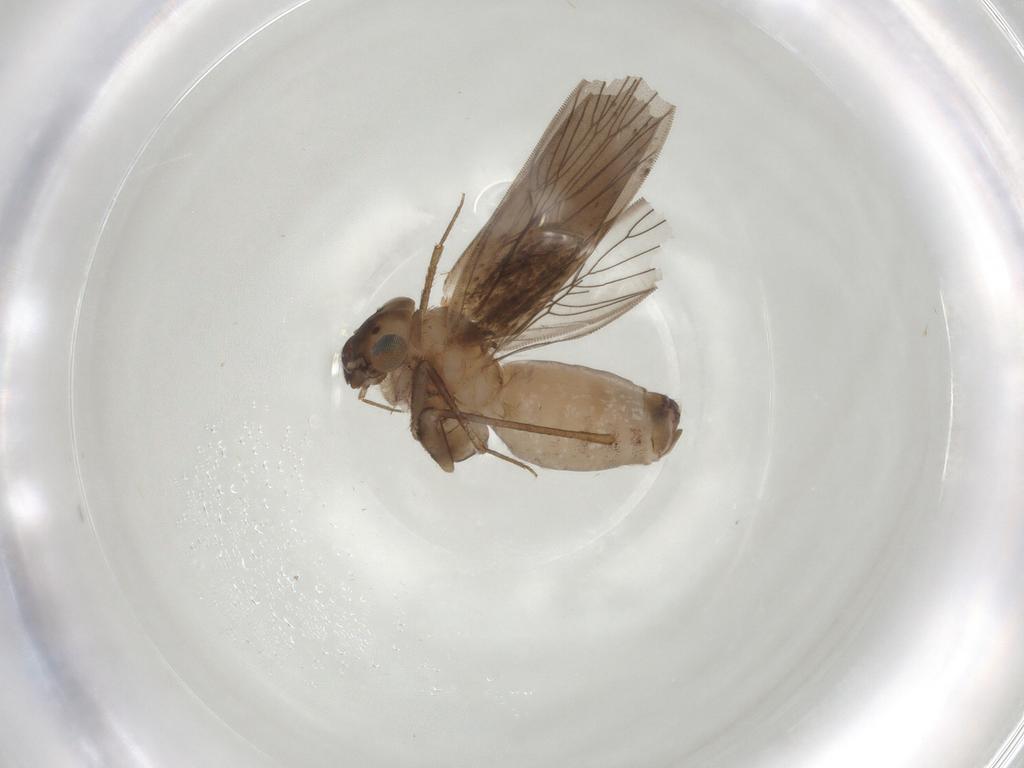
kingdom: Animalia
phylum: Arthropoda
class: Insecta
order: Psocodea
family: Lepidopsocidae
